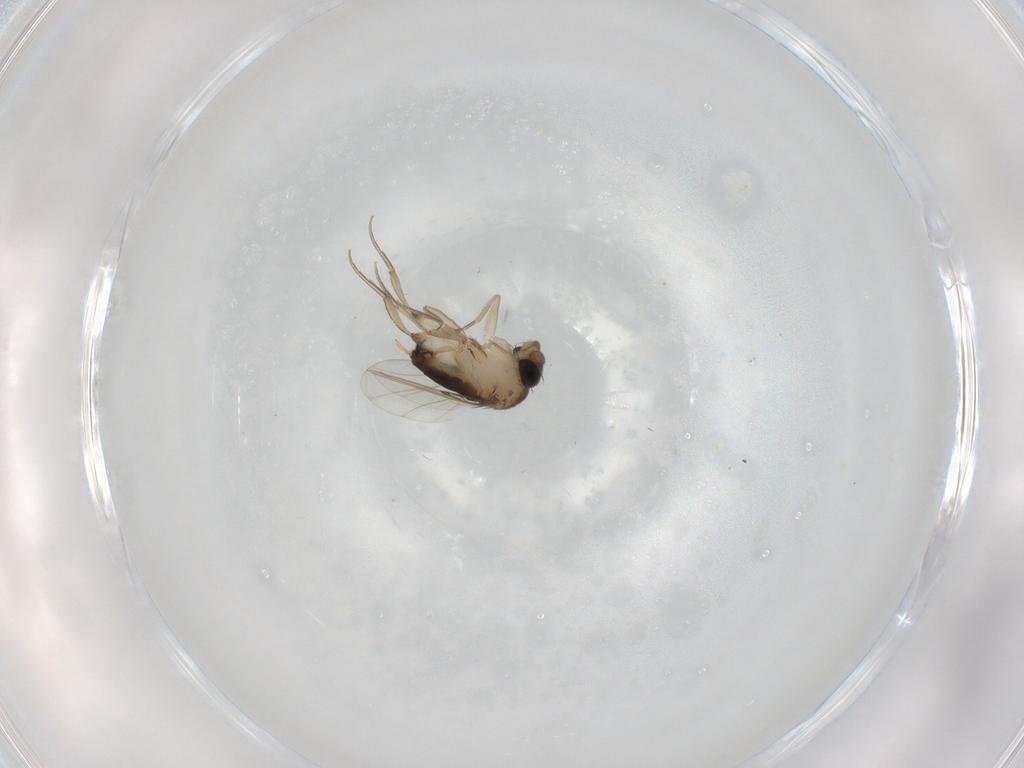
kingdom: Animalia
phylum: Arthropoda
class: Insecta
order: Diptera
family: Phoridae
